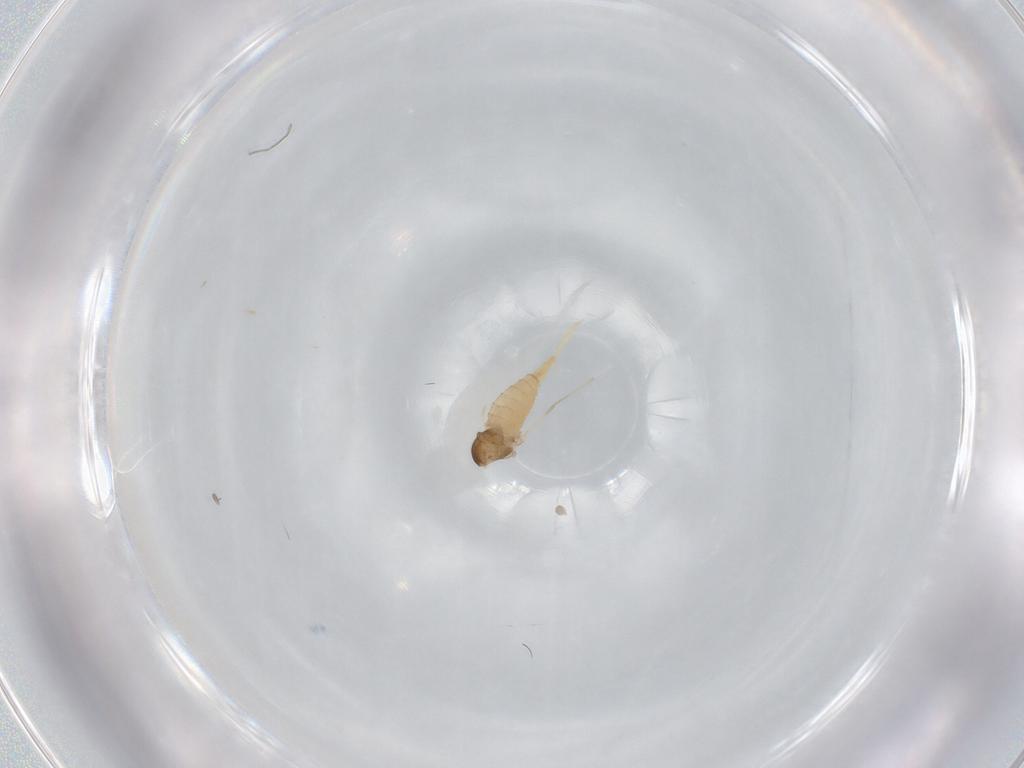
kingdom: Animalia
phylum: Arthropoda
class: Insecta
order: Diptera
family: Cecidomyiidae
